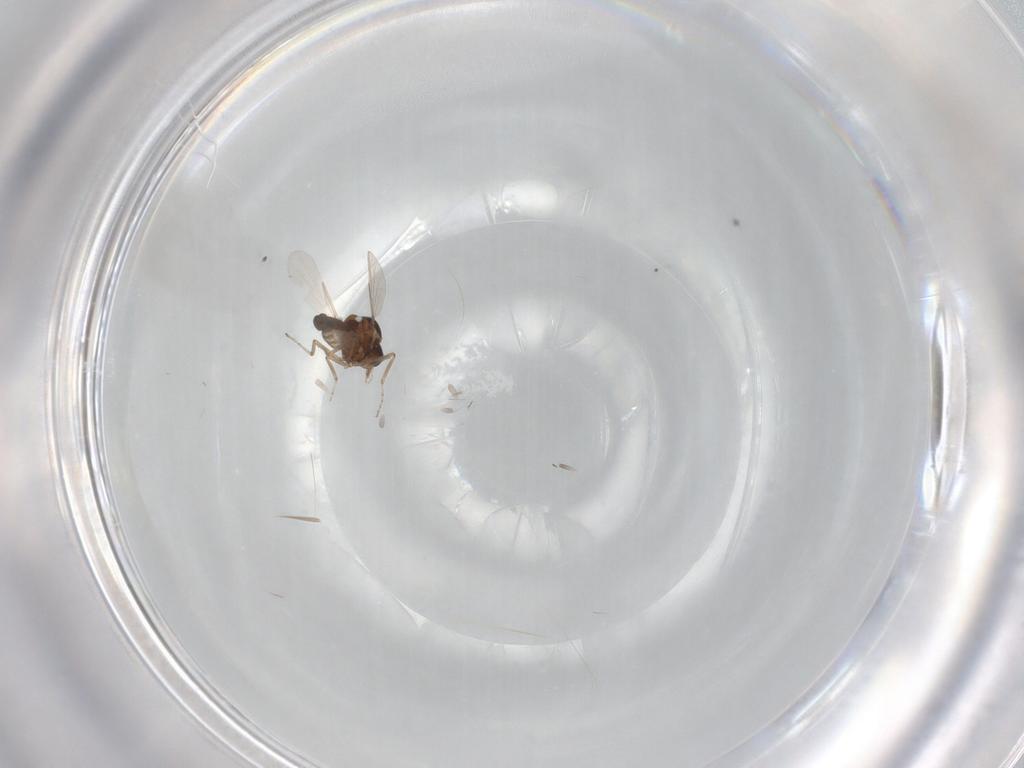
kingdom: Animalia
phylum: Arthropoda
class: Insecta
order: Diptera
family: Ceratopogonidae
